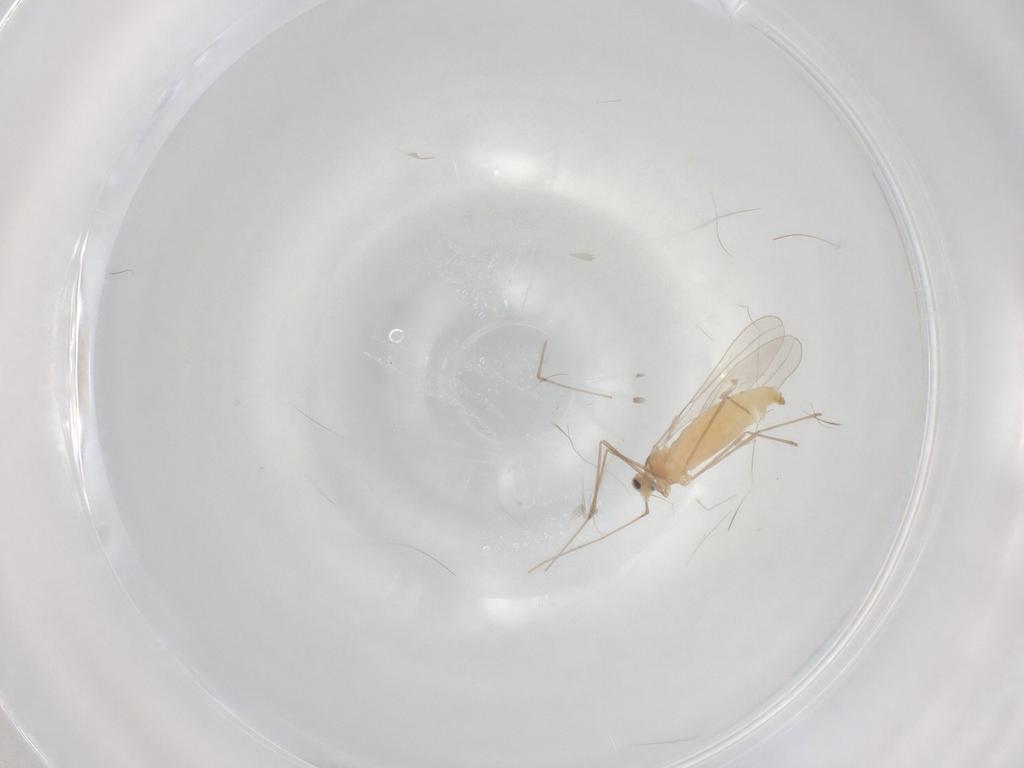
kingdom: Animalia
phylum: Arthropoda
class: Insecta
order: Diptera
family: Cecidomyiidae
